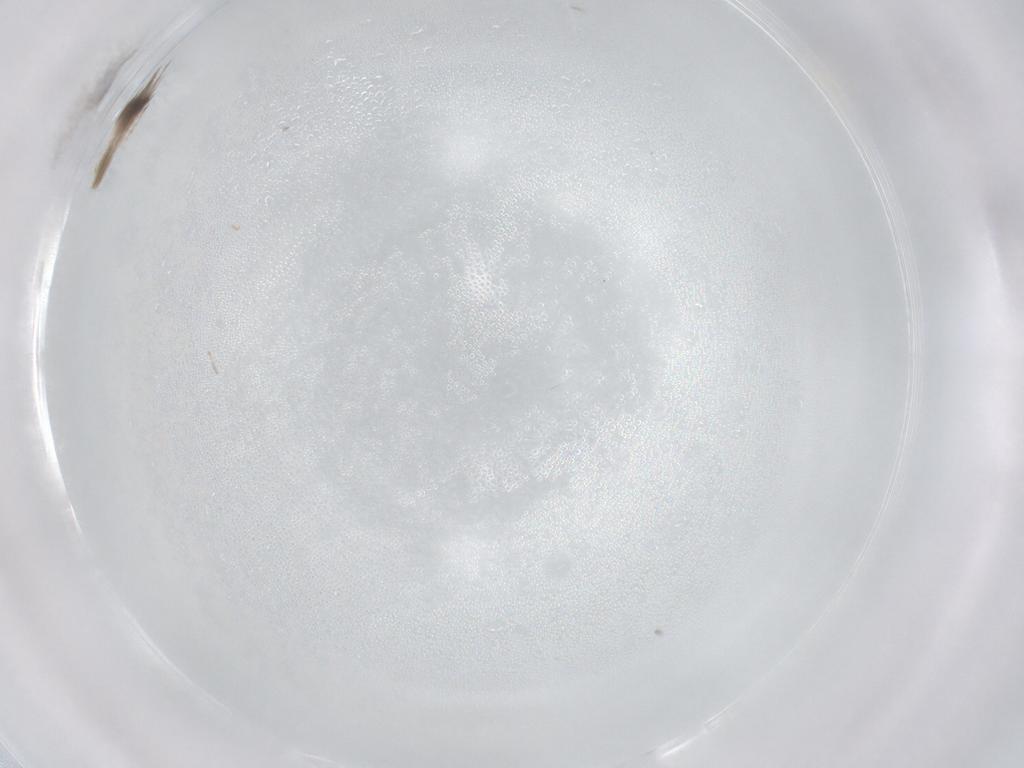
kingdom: Animalia
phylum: Arthropoda
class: Insecta
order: Lepidoptera
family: Lycaenidae
